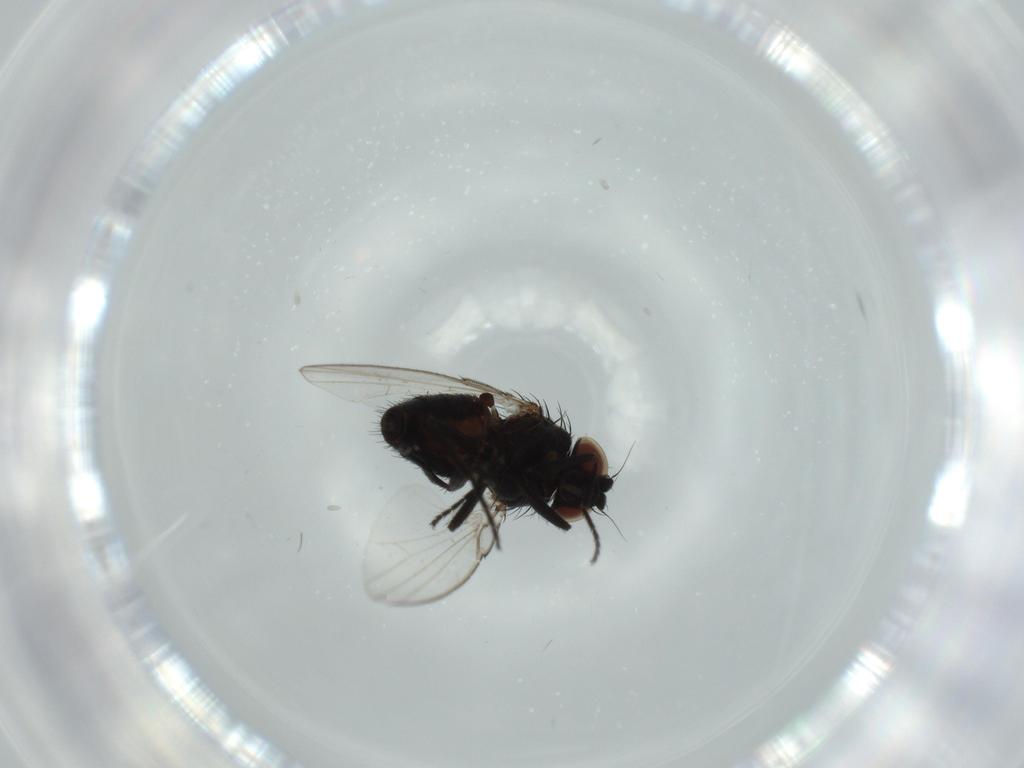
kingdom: Animalia
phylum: Arthropoda
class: Insecta
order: Diptera
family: Milichiidae
